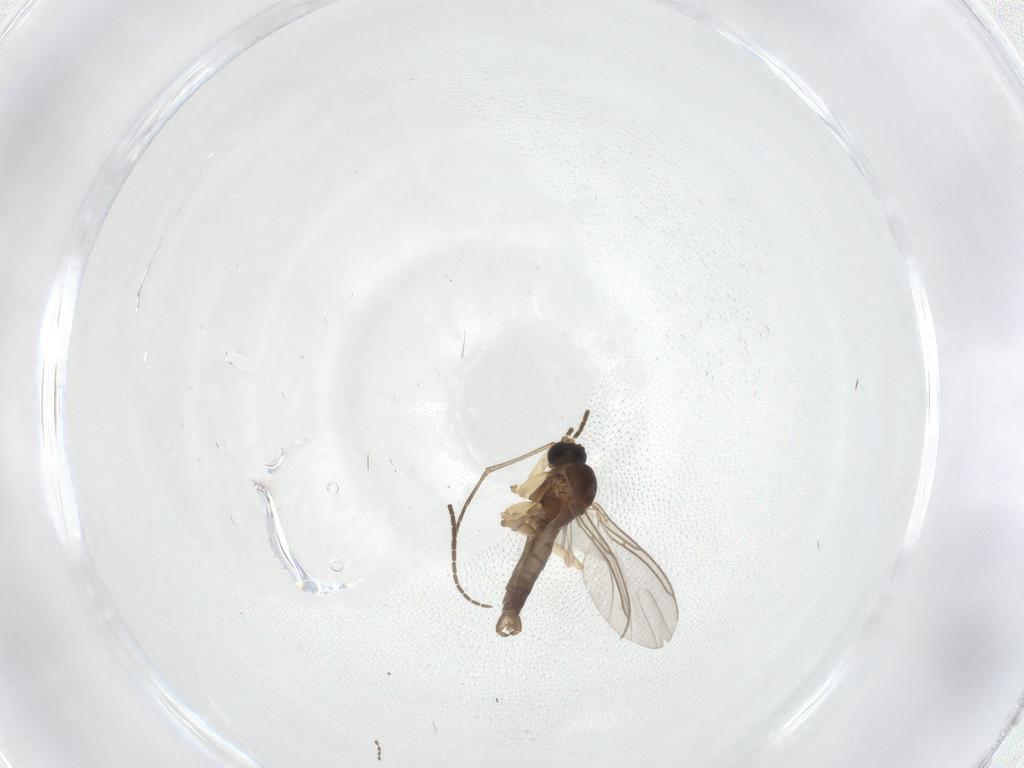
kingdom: Animalia
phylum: Arthropoda
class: Insecta
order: Diptera
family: Sciaridae
